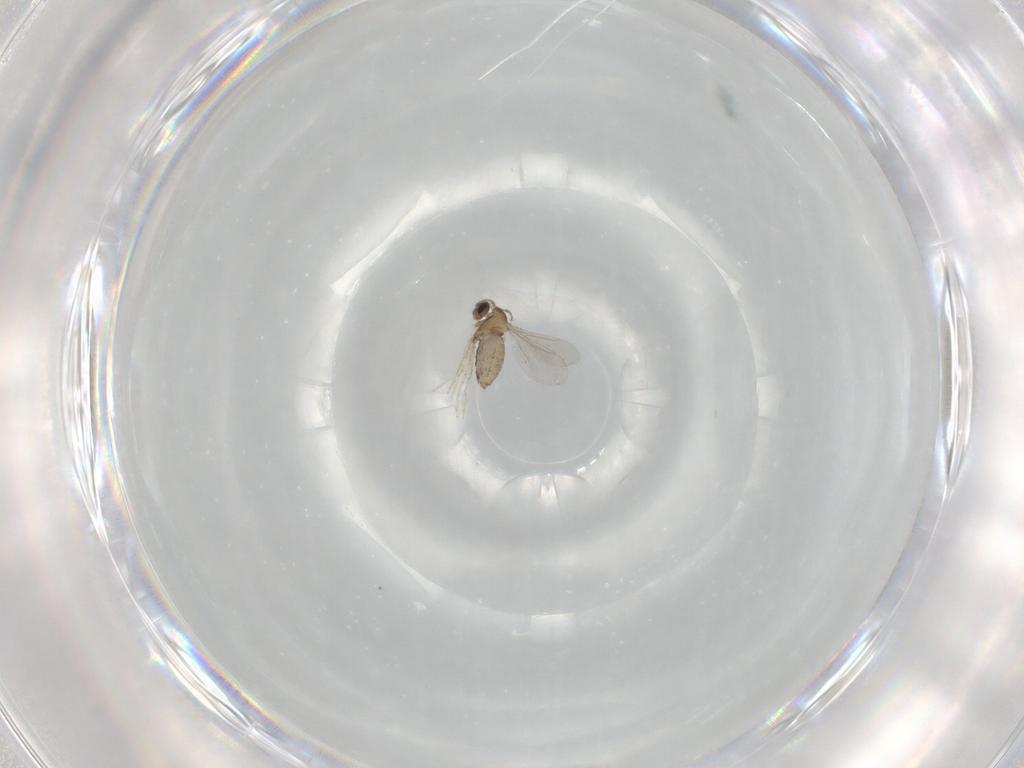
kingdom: Animalia
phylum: Arthropoda
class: Insecta
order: Diptera
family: Cecidomyiidae
